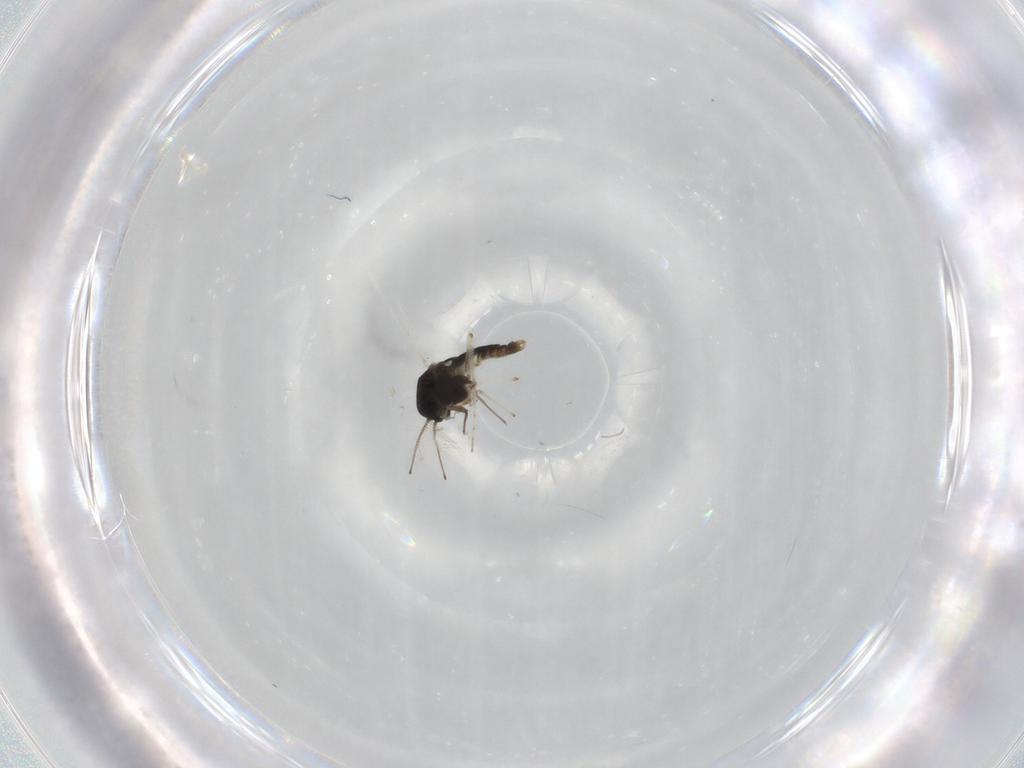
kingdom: Animalia
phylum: Arthropoda
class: Insecta
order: Diptera
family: Chironomidae
